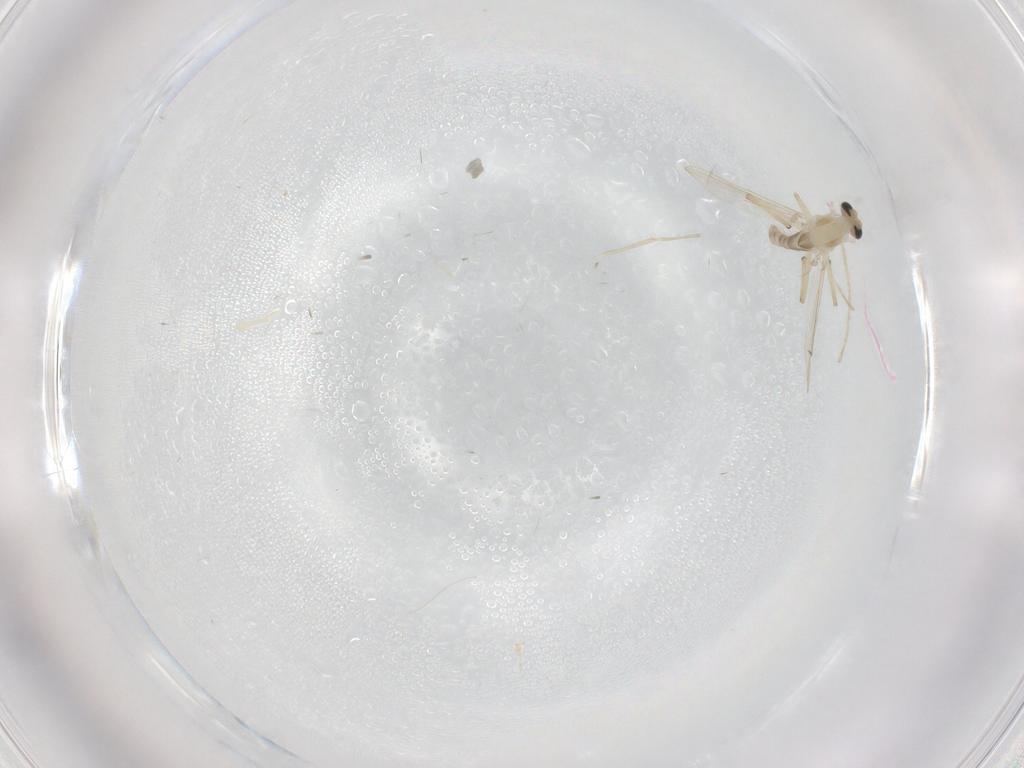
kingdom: Animalia
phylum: Arthropoda
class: Insecta
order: Diptera
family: Chironomidae
